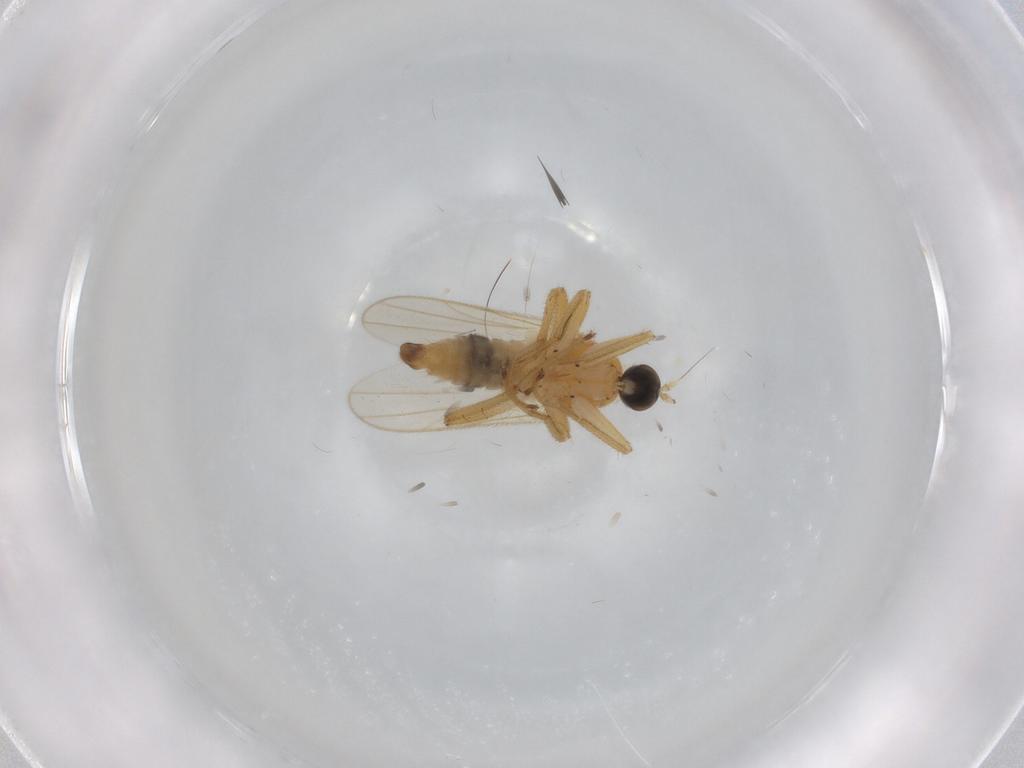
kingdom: Animalia
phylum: Arthropoda
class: Insecta
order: Diptera
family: Hybotidae
